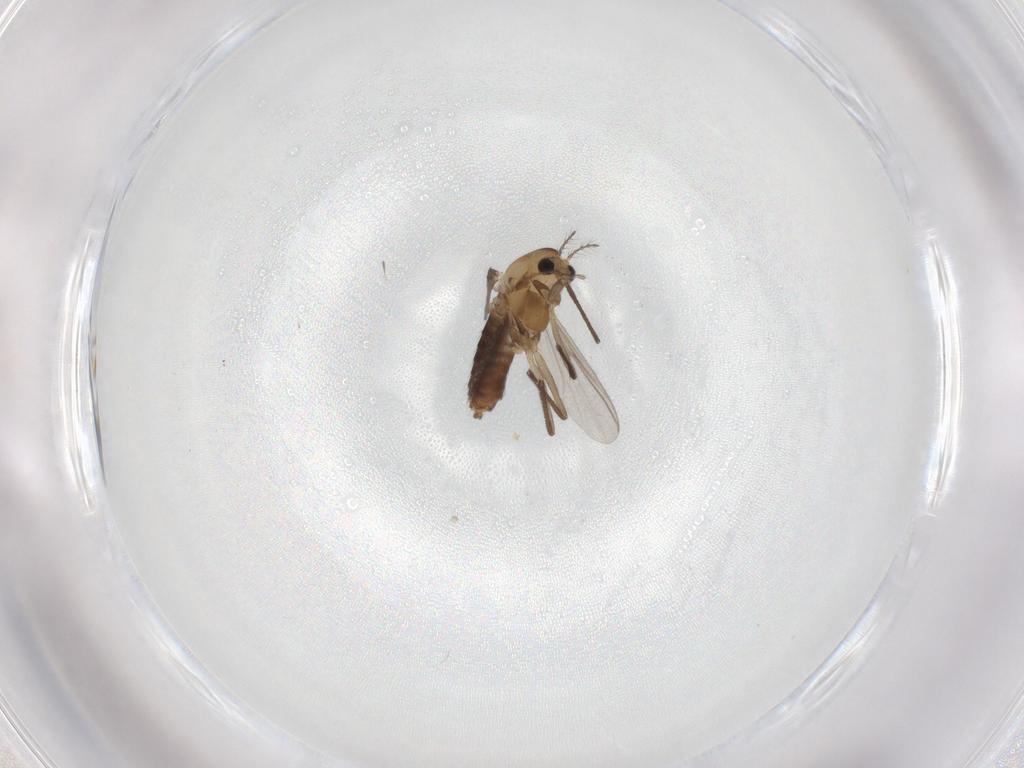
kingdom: Animalia
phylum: Arthropoda
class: Insecta
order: Diptera
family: Chironomidae
